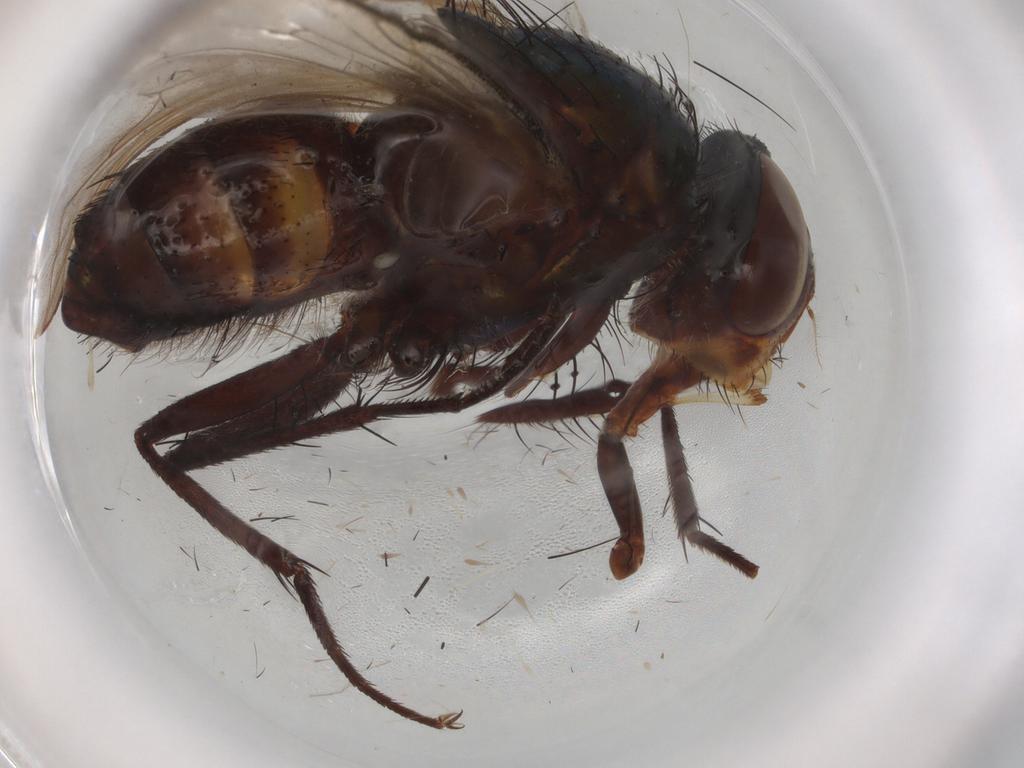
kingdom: Animalia
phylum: Arthropoda
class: Insecta
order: Diptera
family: Calliphoridae
